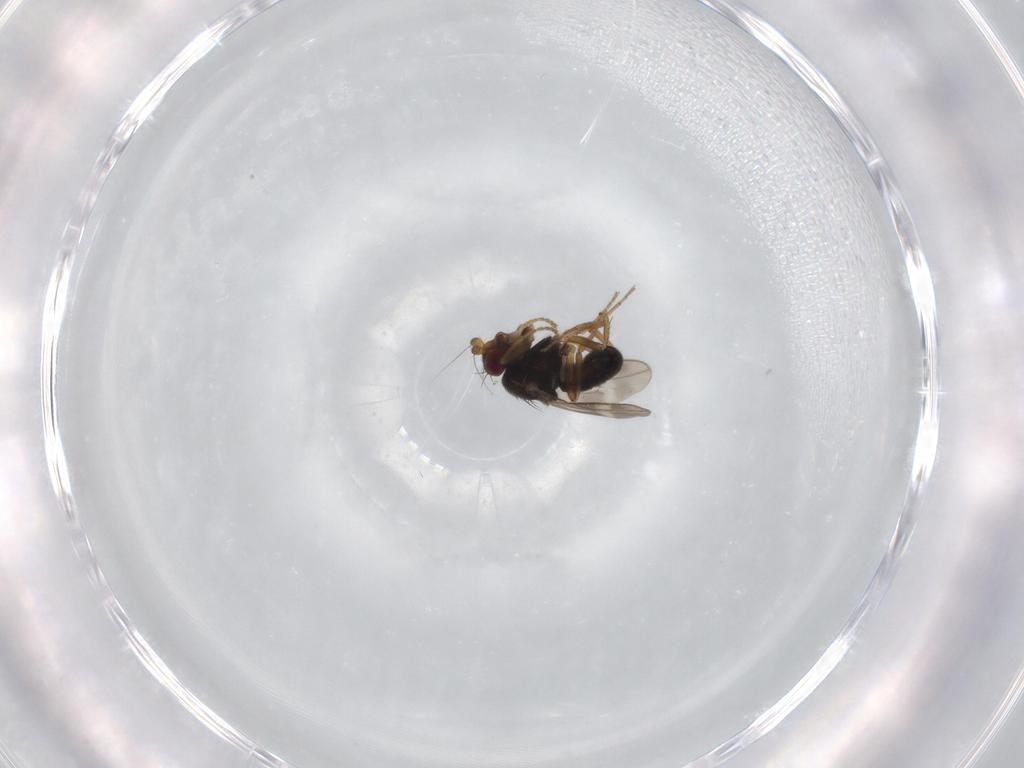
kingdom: Animalia
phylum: Arthropoda
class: Insecta
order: Diptera
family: Sphaeroceridae
